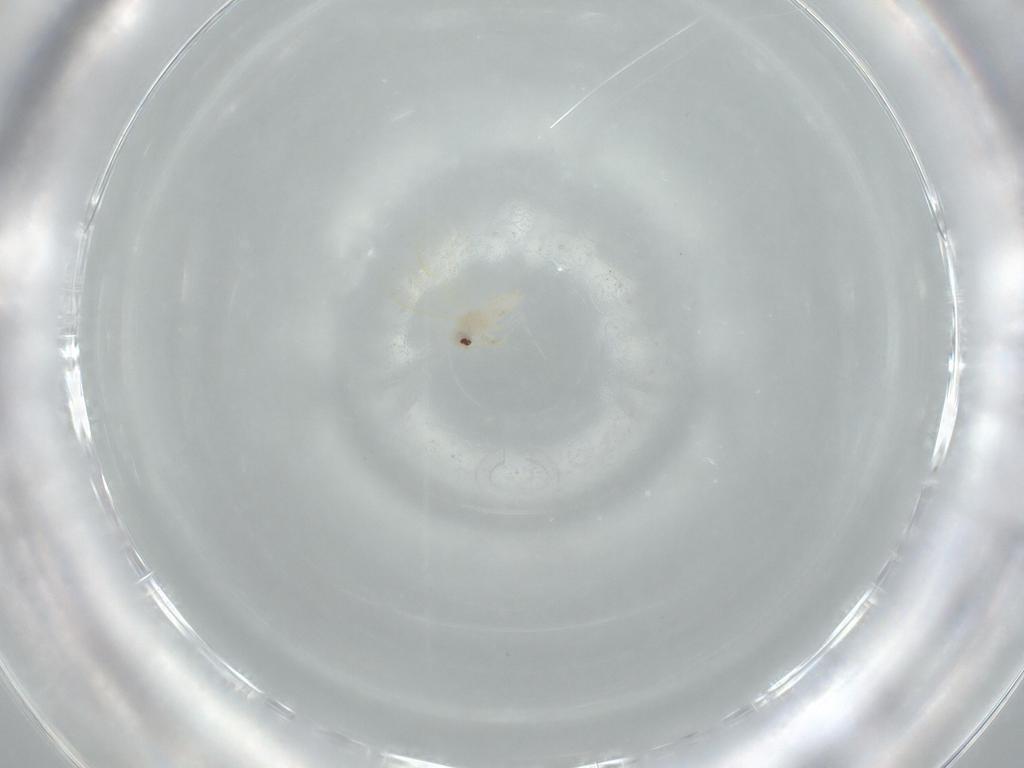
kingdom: Animalia
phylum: Arthropoda
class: Insecta
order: Hemiptera
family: Aleyrodidae
